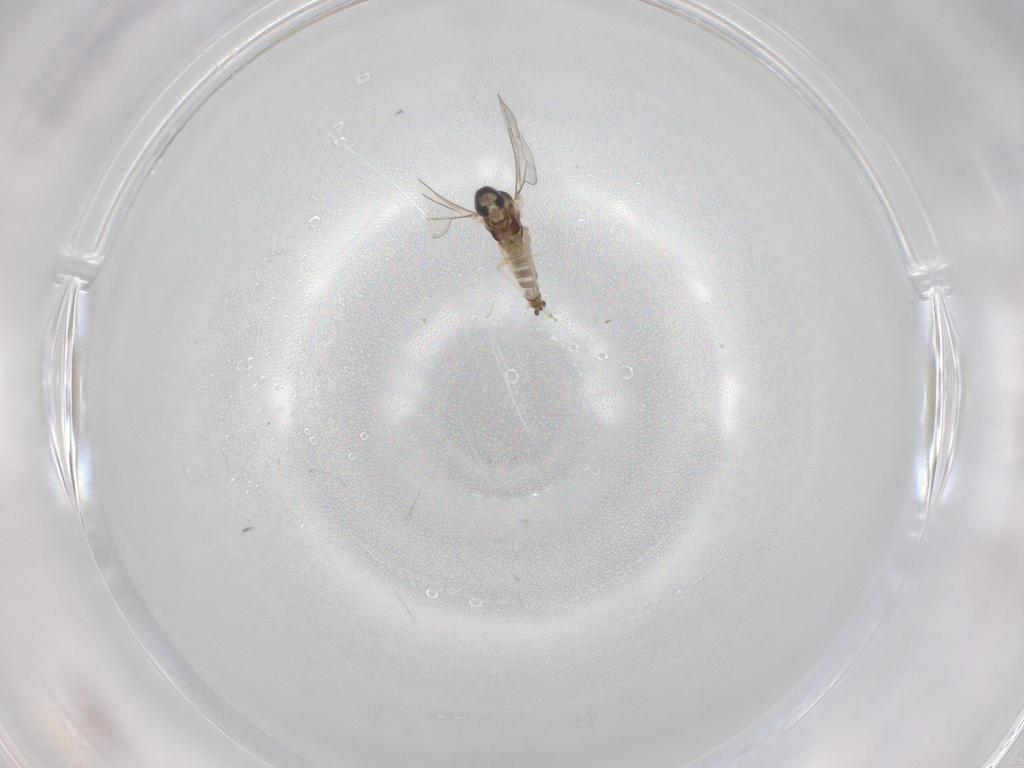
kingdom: Animalia
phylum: Arthropoda
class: Insecta
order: Diptera
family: Cecidomyiidae
